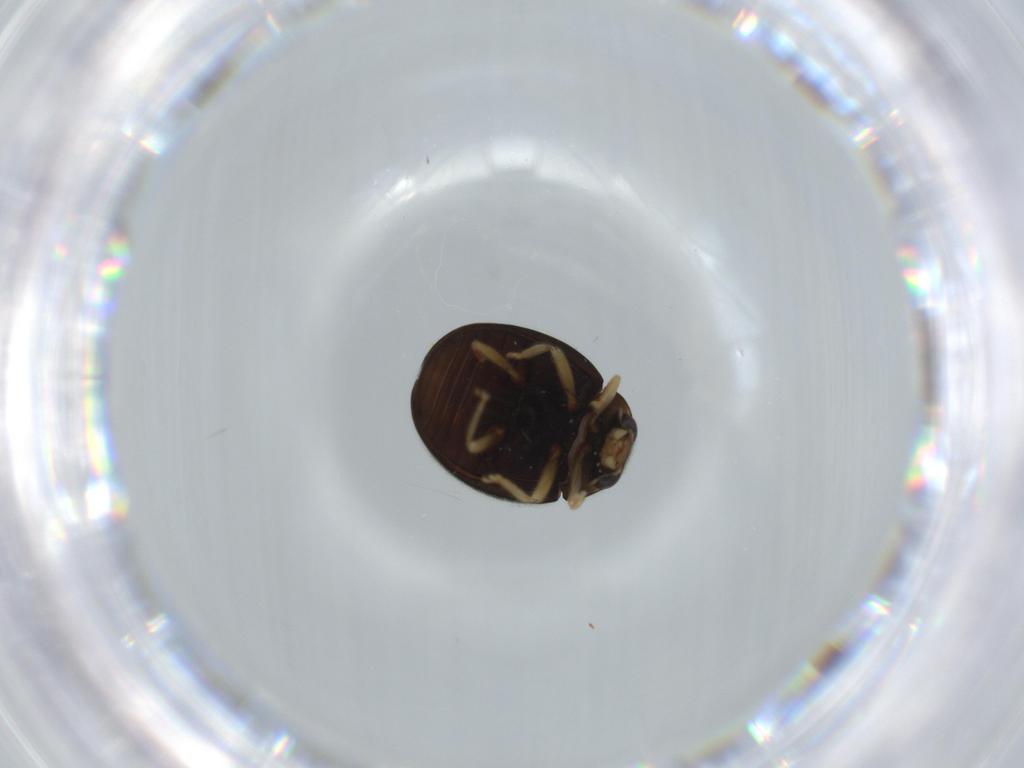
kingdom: Animalia
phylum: Arthropoda
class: Insecta
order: Coleoptera
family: Coccinellidae
